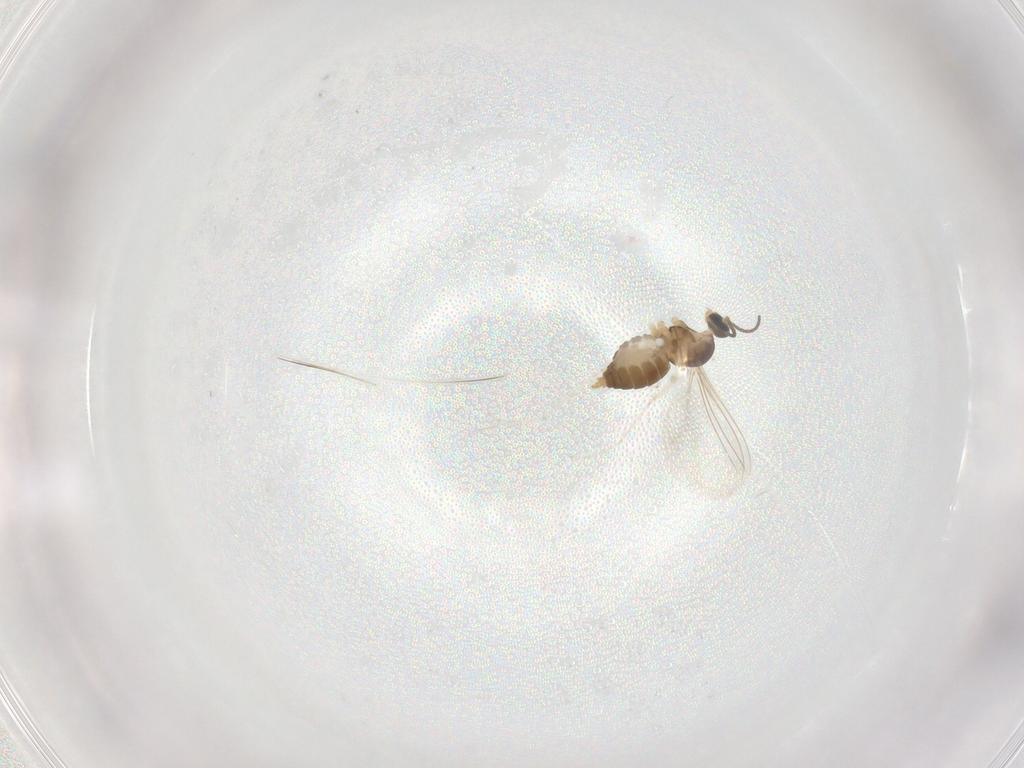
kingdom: Animalia
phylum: Arthropoda
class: Insecta
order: Diptera
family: Cecidomyiidae
